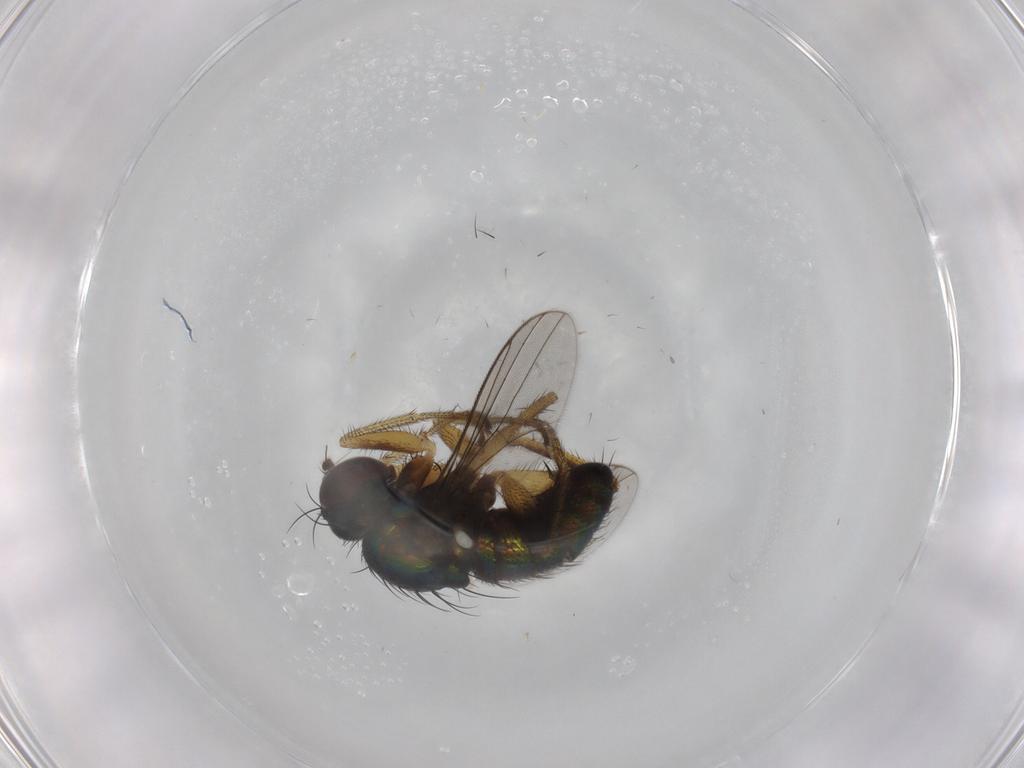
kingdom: Animalia
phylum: Arthropoda
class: Insecta
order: Diptera
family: Dolichopodidae
